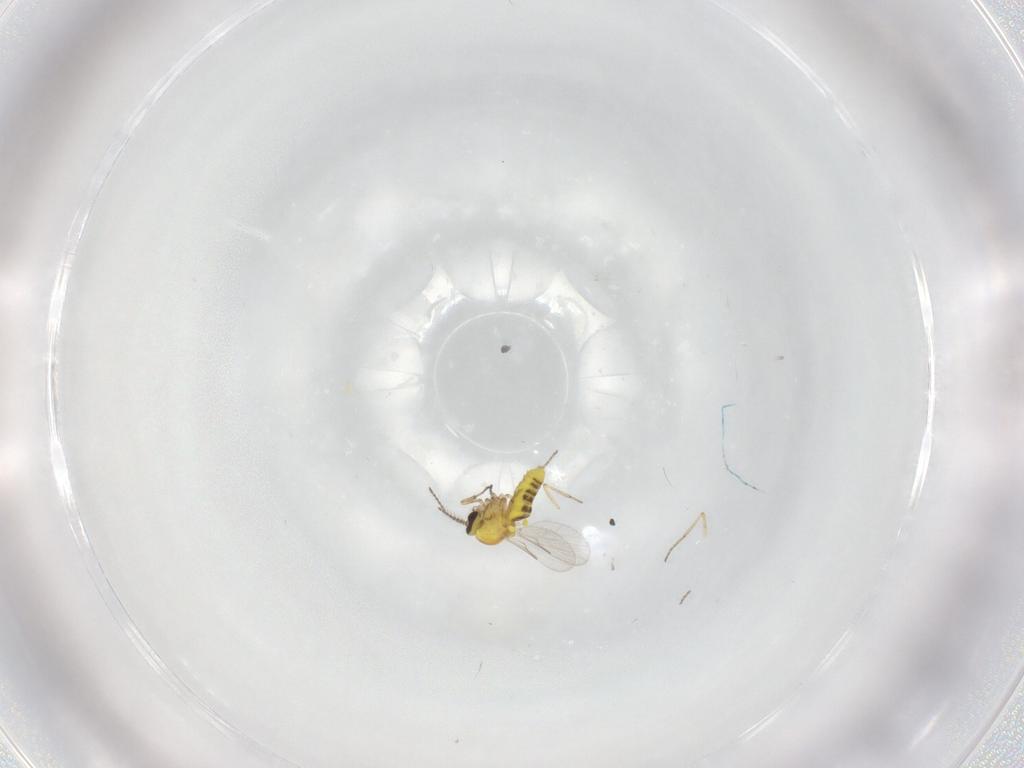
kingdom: Animalia
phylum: Arthropoda
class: Insecta
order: Diptera
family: Ceratopogonidae
